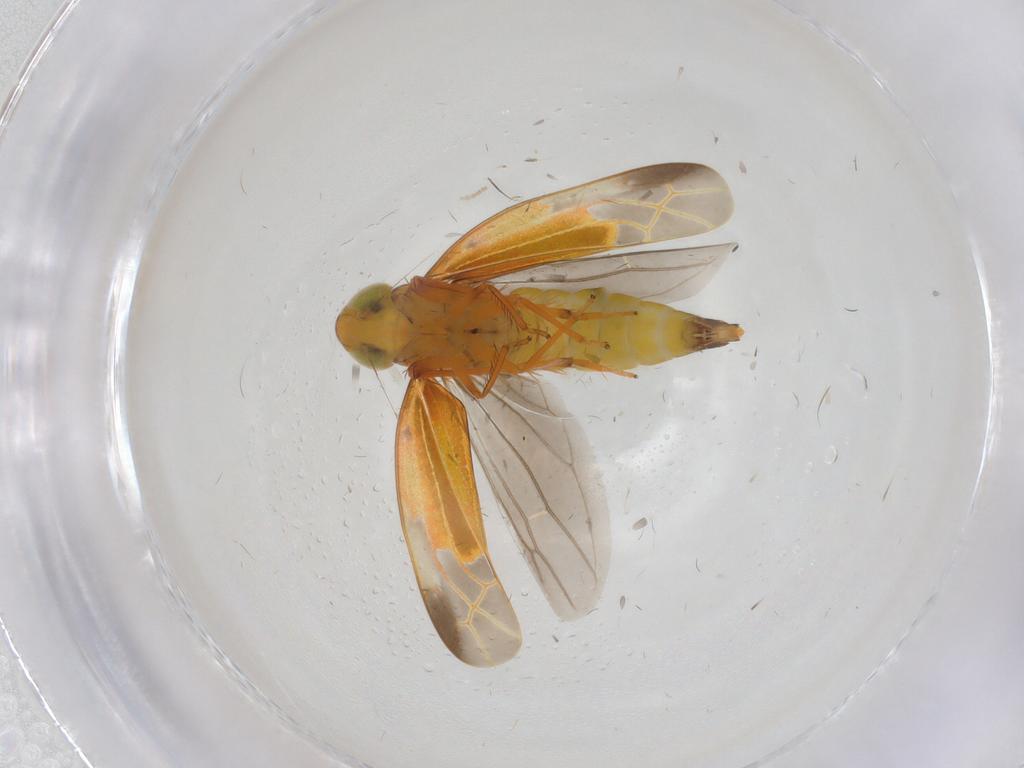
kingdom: Animalia
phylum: Arthropoda
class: Insecta
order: Hemiptera
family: Cicadellidae
